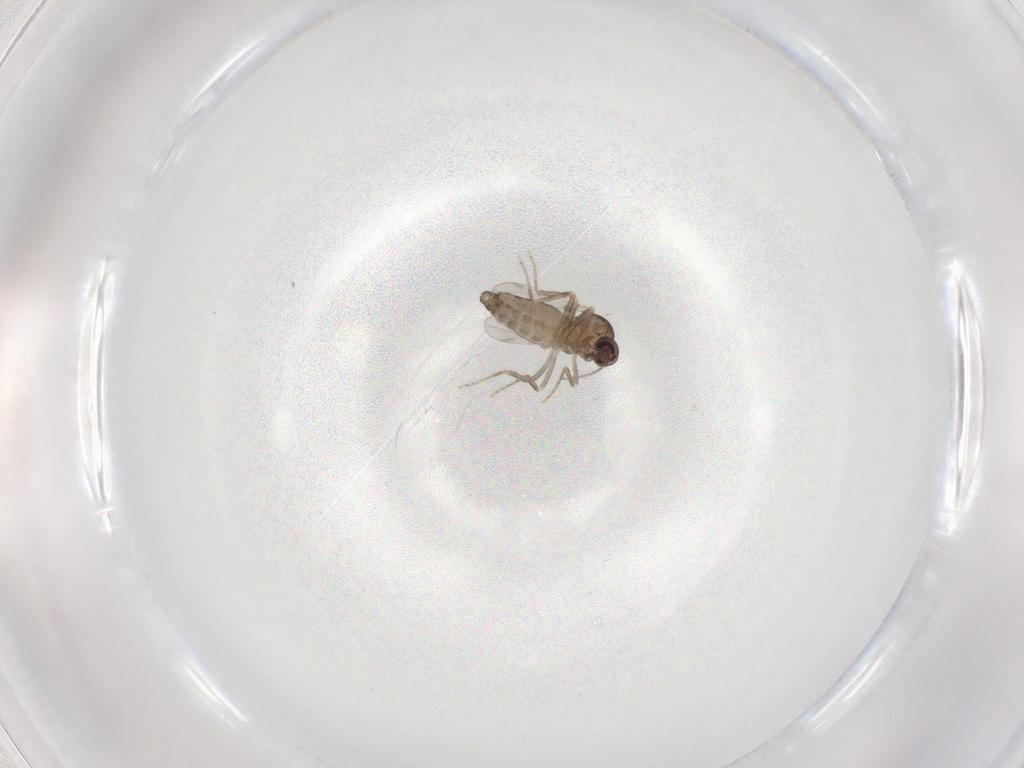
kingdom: Animalia
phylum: Arthropoda
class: Insecta
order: Diptera
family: Ceratopogonidae
